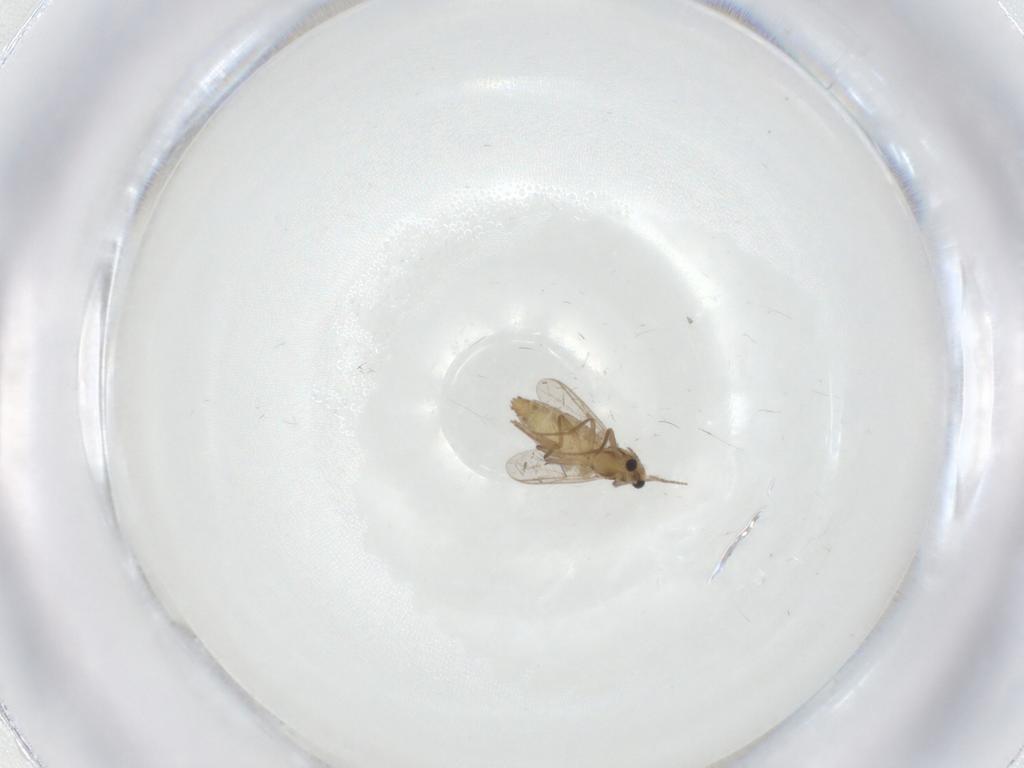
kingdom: Animalia
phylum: Arthropoda
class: Insecta
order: Diptera
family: Chironomidae
